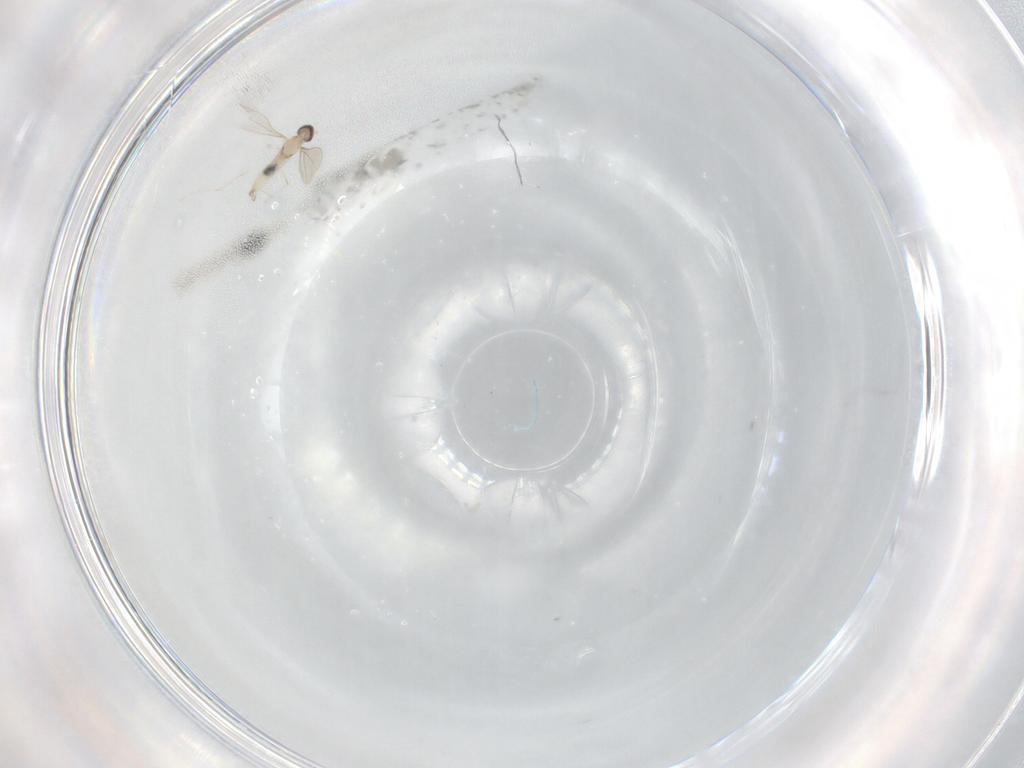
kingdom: Animalia
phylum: Arthropoda
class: Insecta
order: Diptera
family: Cecidomyiidae
